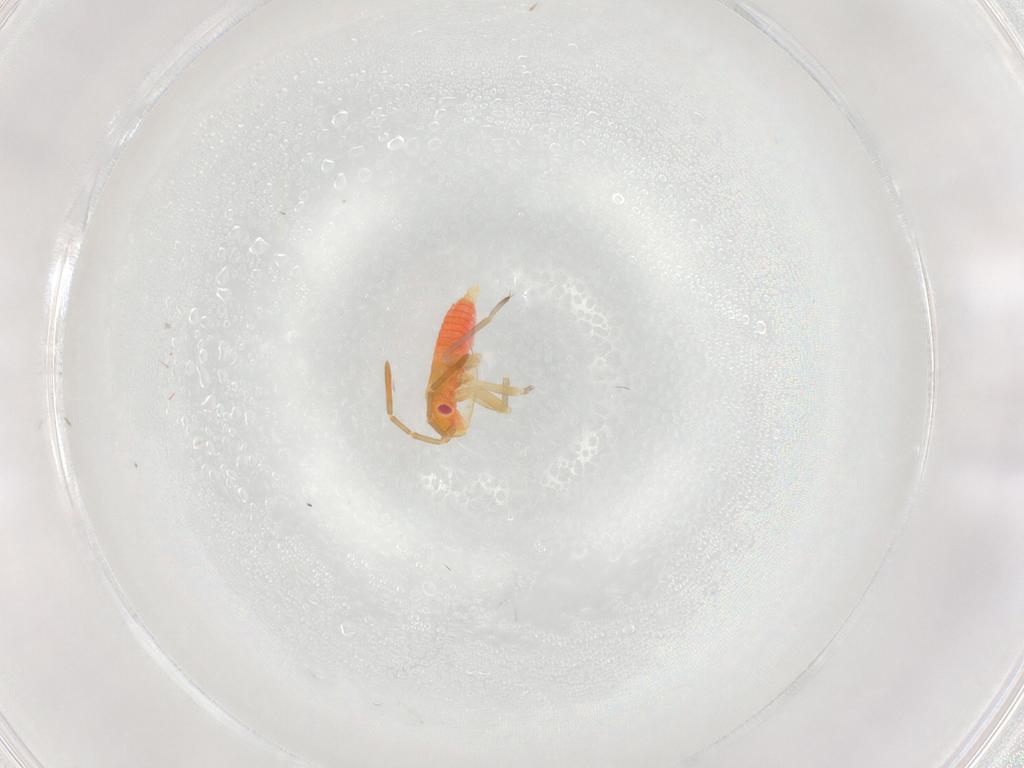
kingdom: Animalia
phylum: Arthropoda
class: Insecta
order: Hemiptera
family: Miridae
